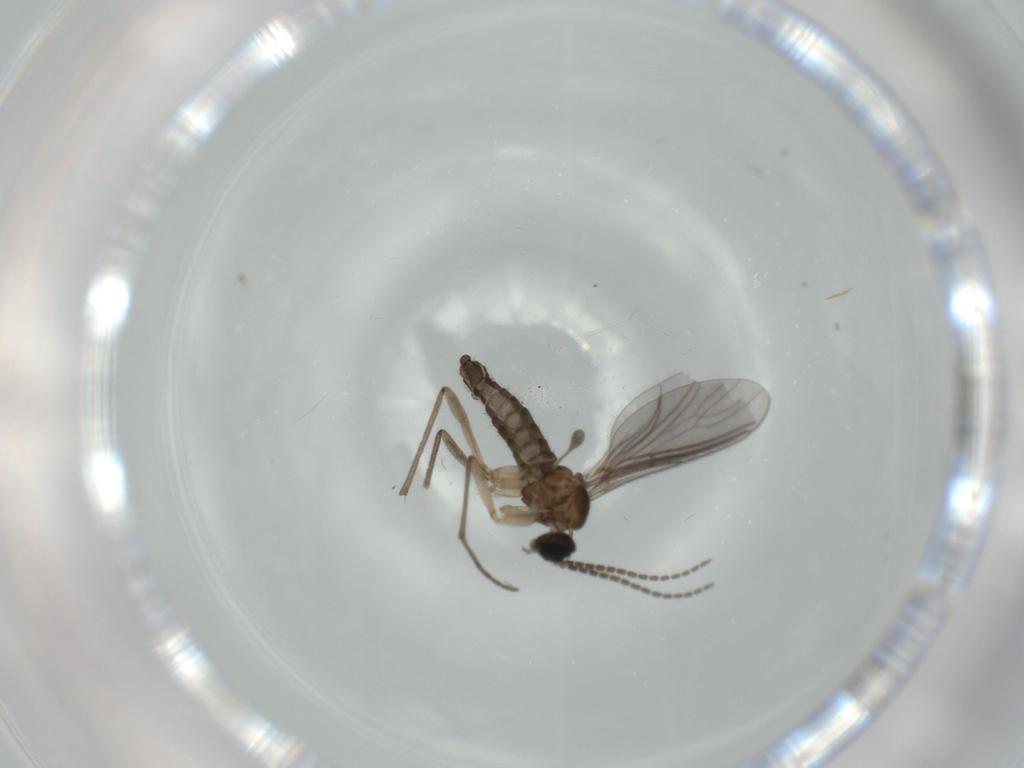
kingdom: Animalia
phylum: Arthropoda
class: Insecta
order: Diptera
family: Sciaridae
